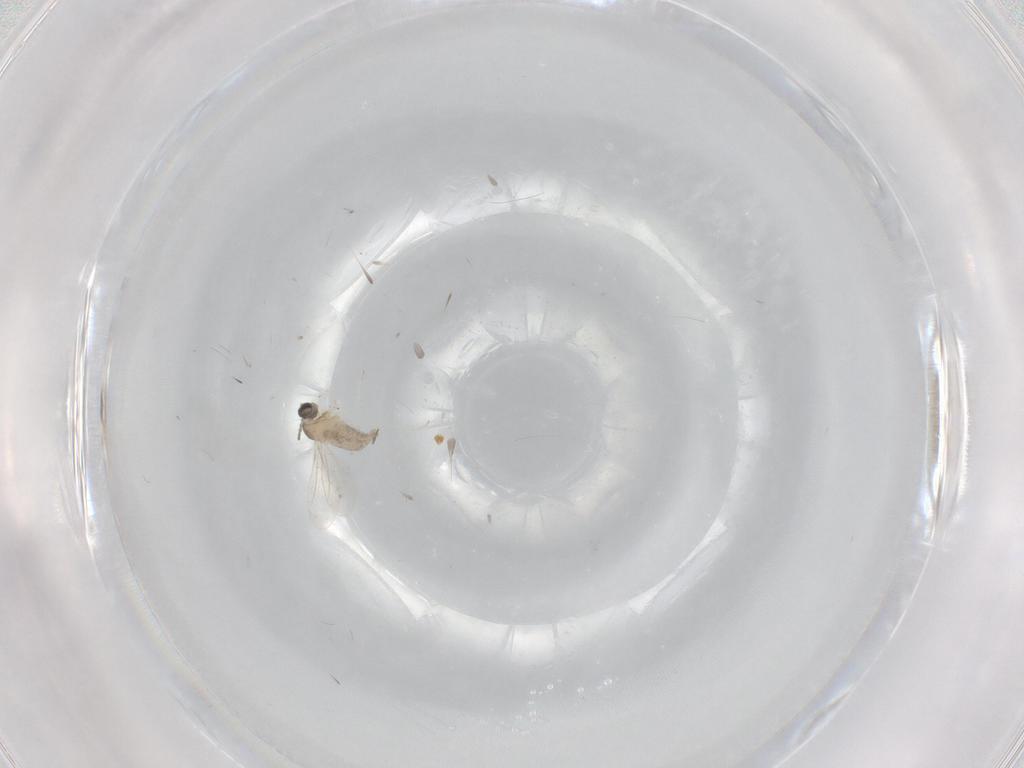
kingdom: Animalia
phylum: Arthropoda
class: Insecta
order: Diptera
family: Cecidomyiidae
